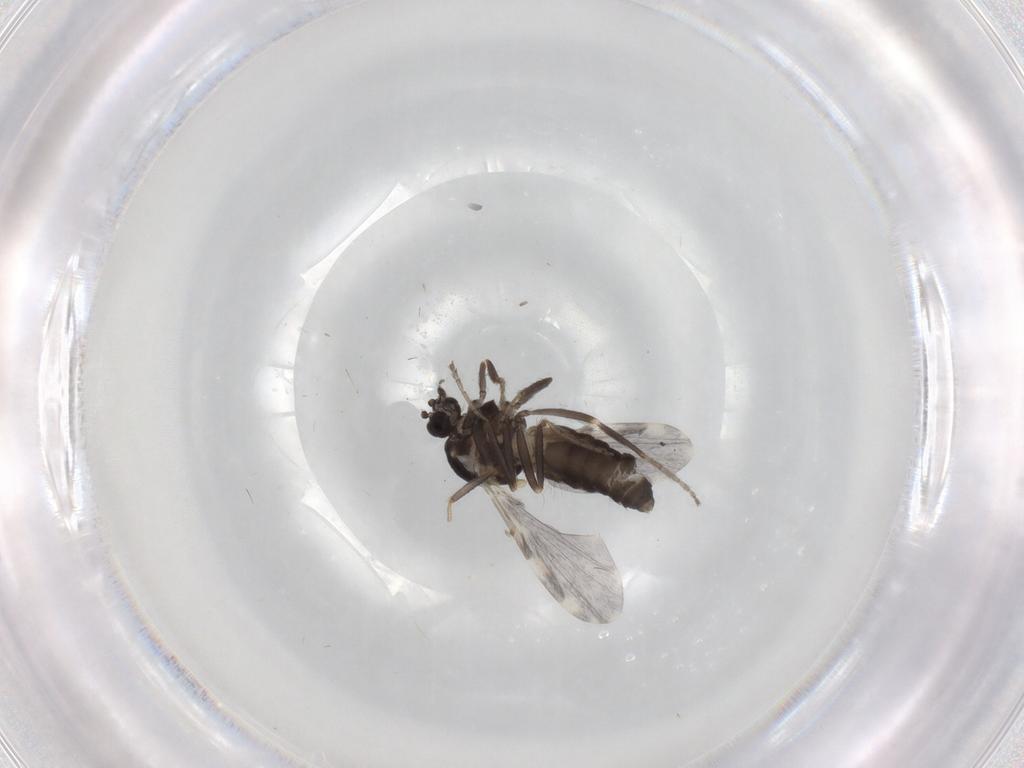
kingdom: Animalia
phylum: Arthropoda
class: Insecta
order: Diptera
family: Ceratopogonidae
